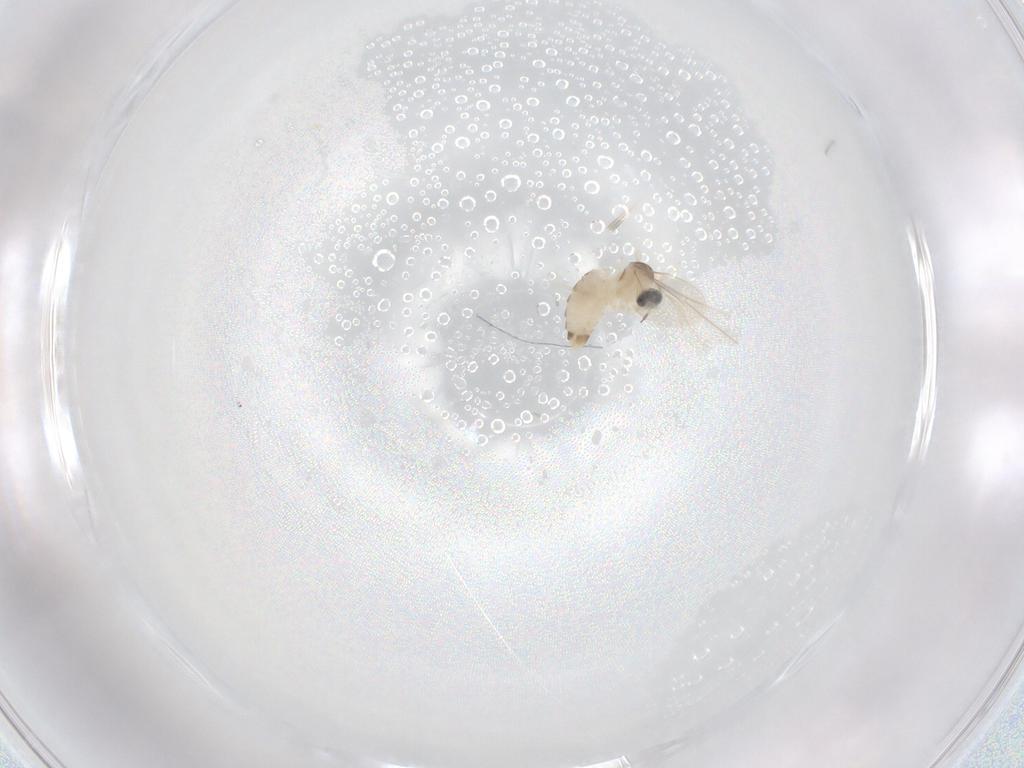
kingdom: Animalia
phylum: Arthropoda
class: Insecta
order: Diptera
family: Cecidomyiidae
